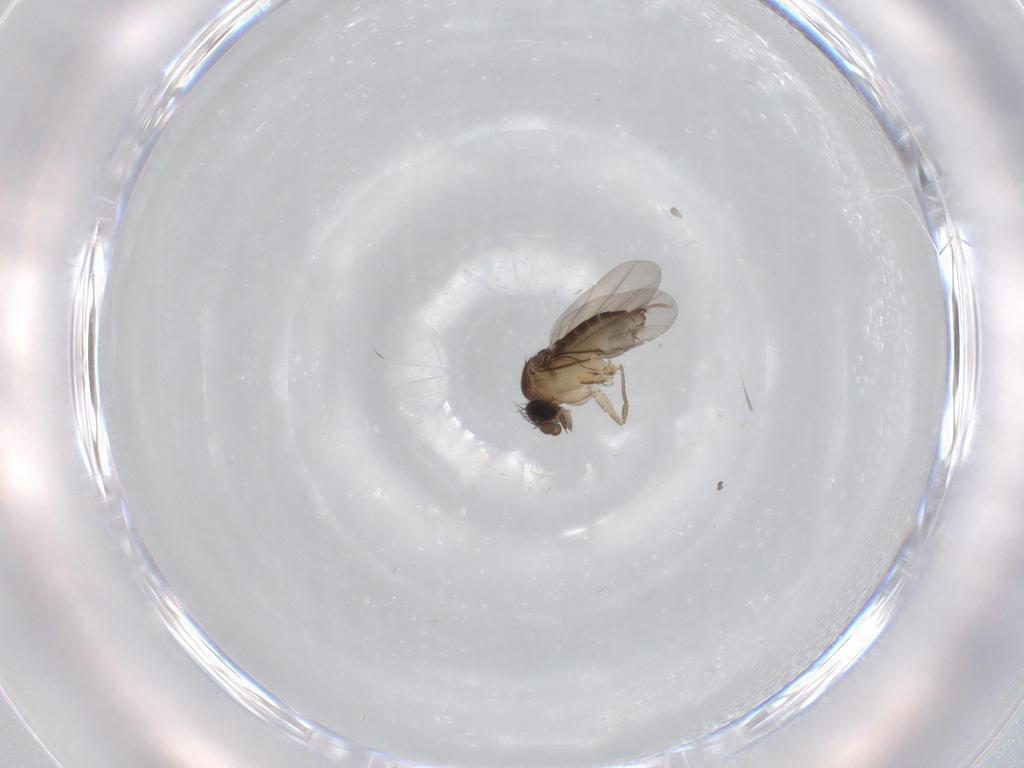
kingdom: Animalia
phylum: Arthropoda
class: Insecta
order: Diptera
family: Phoridae
